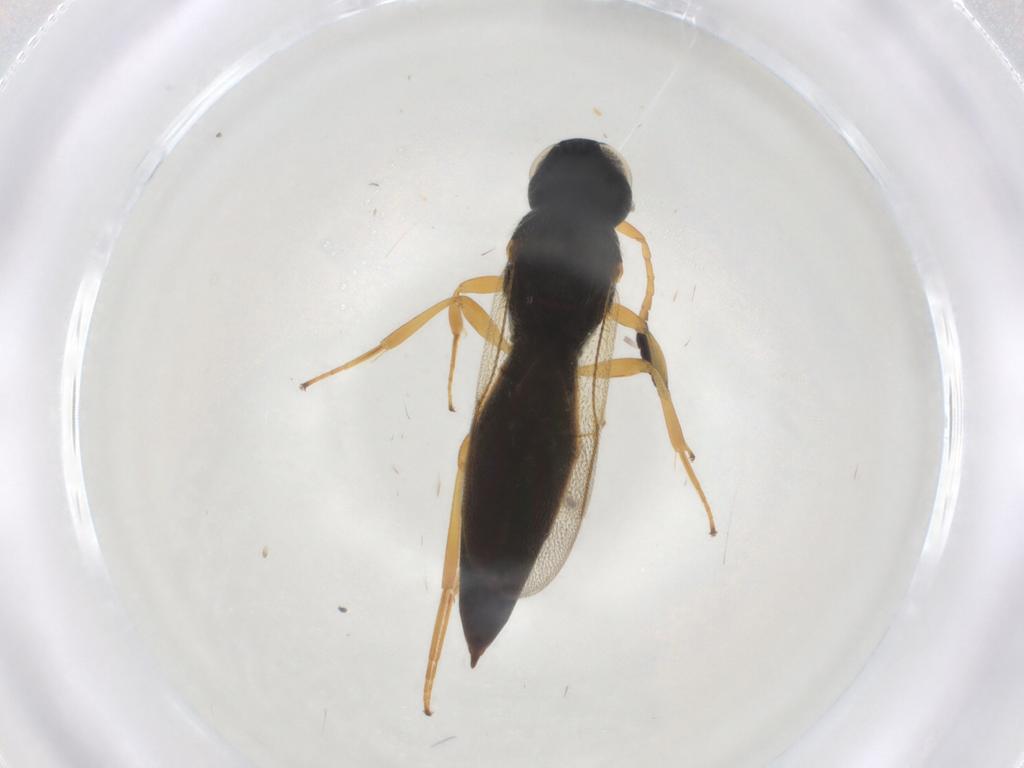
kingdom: Animalia
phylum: Arthropoda
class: Insecta
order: Hymenoptera
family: Scelionidae
